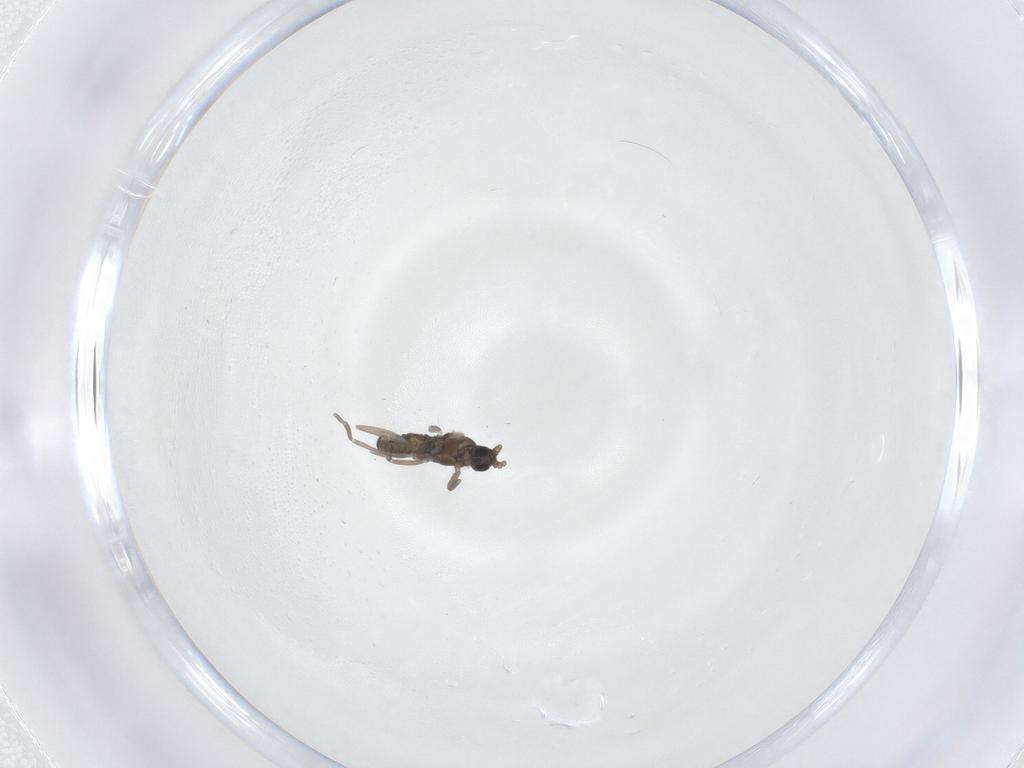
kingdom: Animalia
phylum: Arthropoda
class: Insecta
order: Diptera
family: Cecidomyiidae
